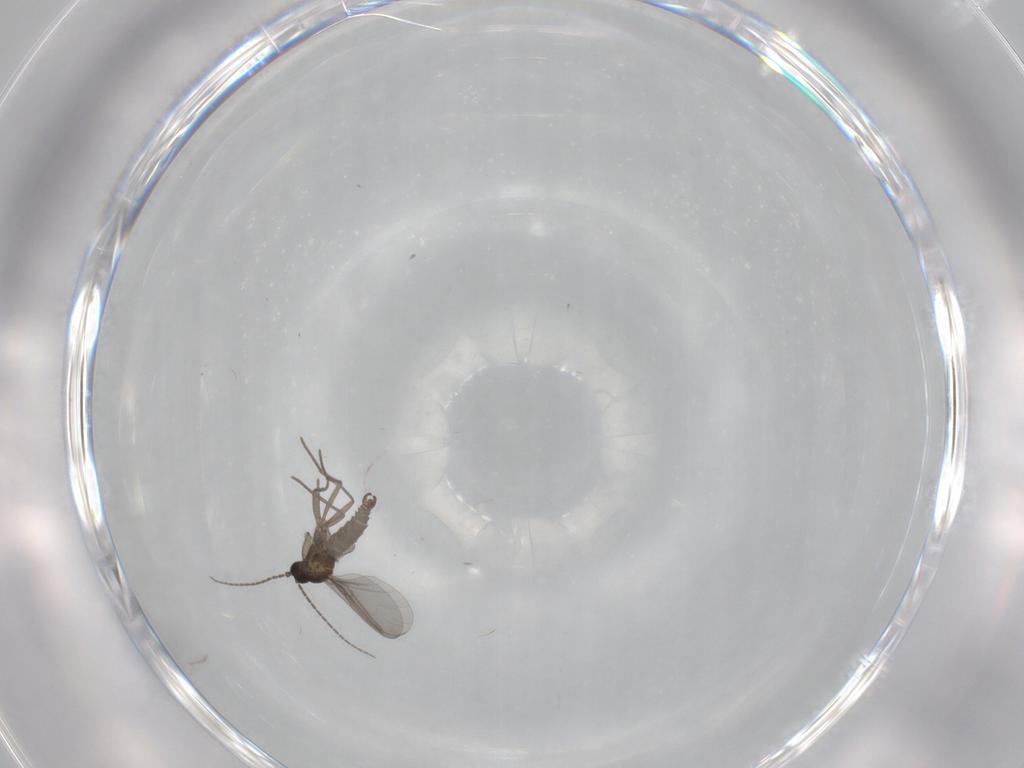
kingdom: Animalia
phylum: Arthropoda
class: Insecta
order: Diptera
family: Sciaridae
